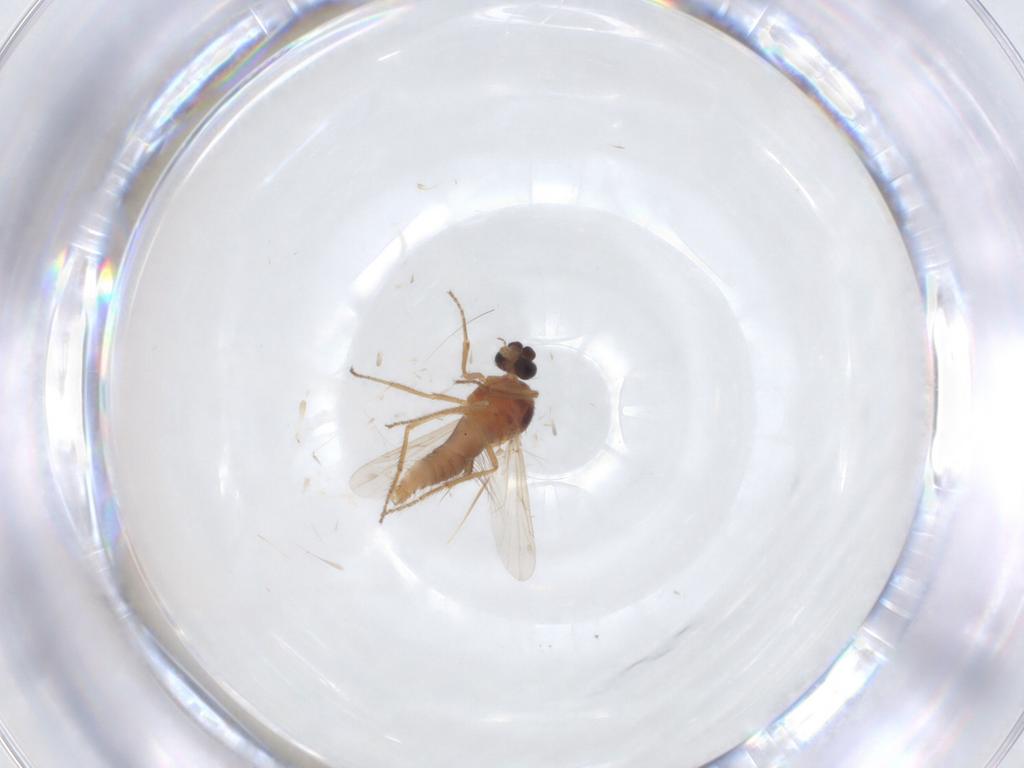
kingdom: Animalia
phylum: Arthropoda
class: Insecta
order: Diptera
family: Ceratopogonidae
